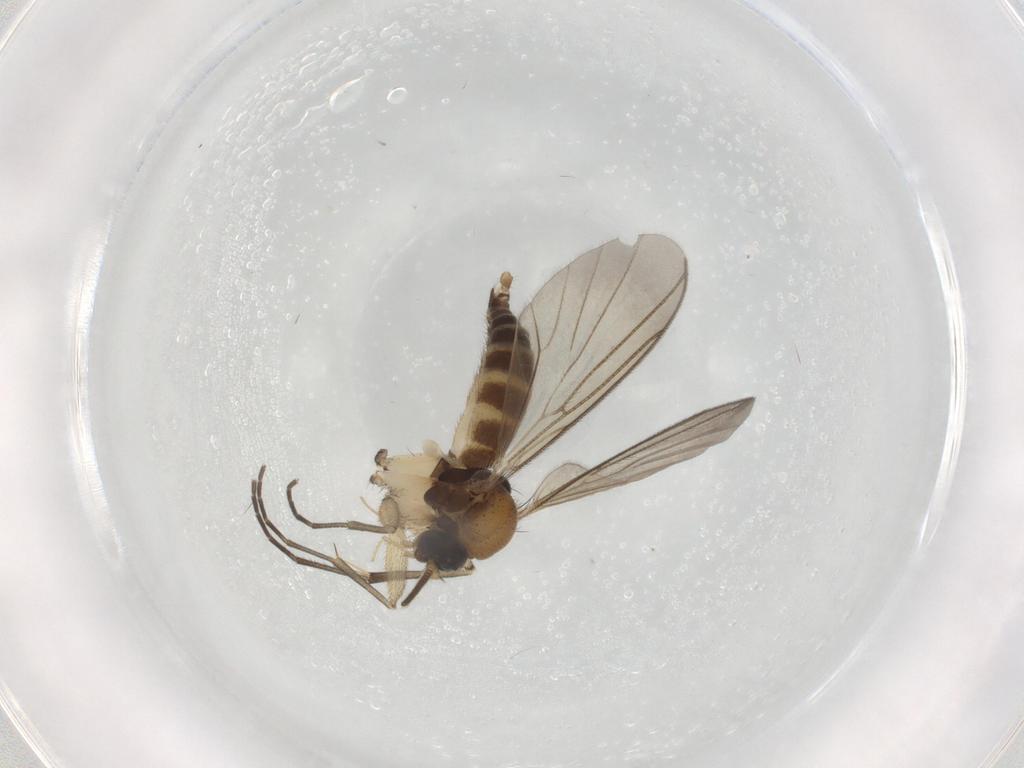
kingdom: Animalia
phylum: Arthropoda
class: Insecta
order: Diptera
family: Mycetophilidae
